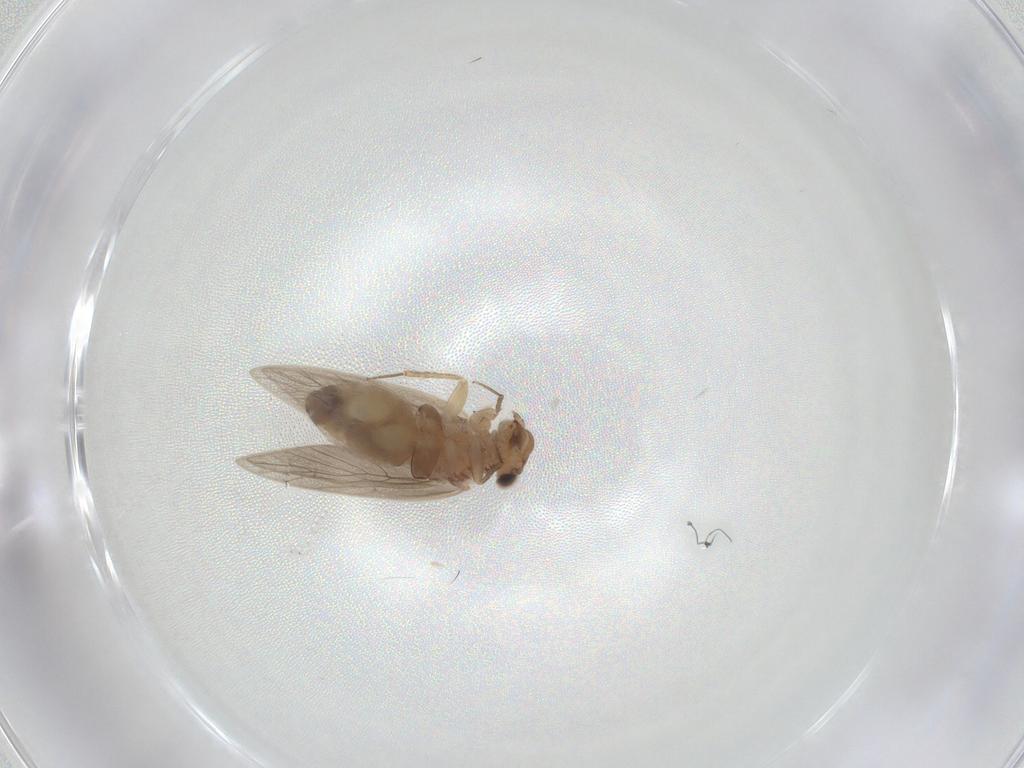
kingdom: Animalia
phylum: Arthropoda
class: Insecta
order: Psocodea
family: Lepidopsocidae
